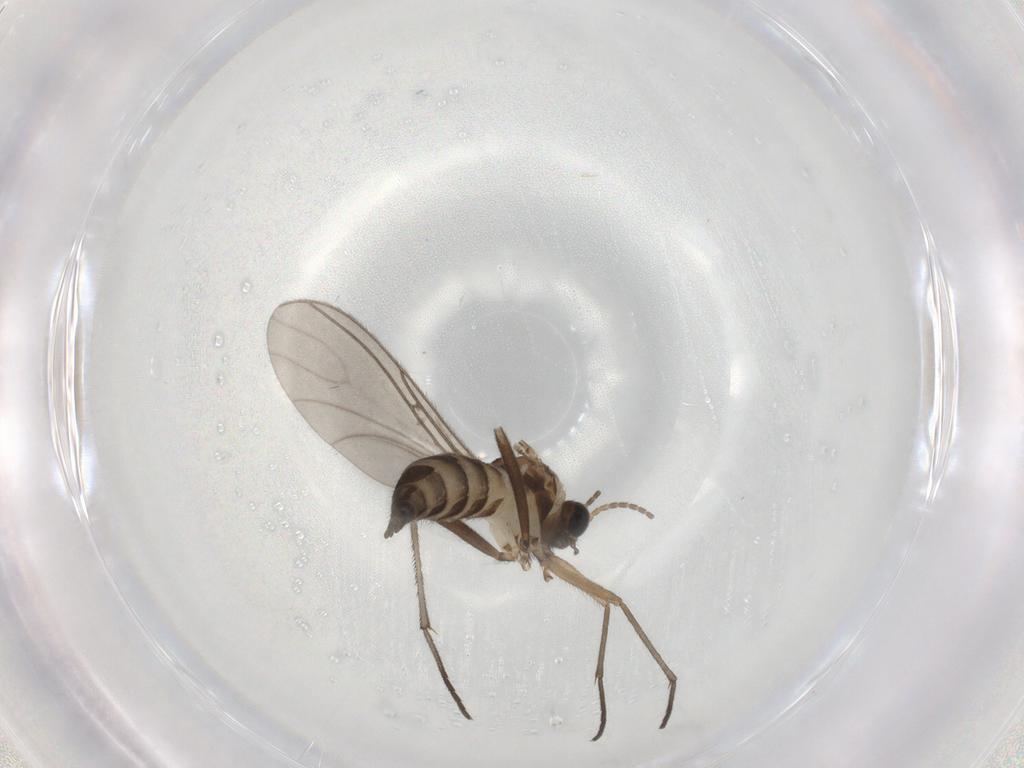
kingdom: Animalia
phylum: Arthropoda
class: Insecta
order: Diptera
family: Sciaridae
